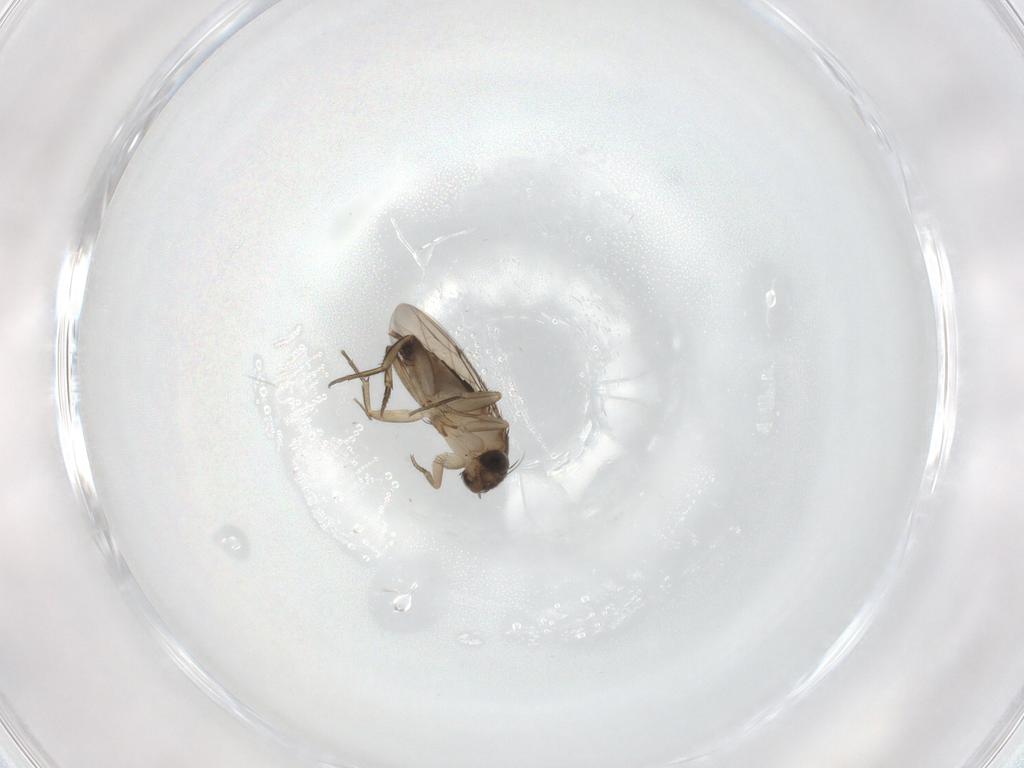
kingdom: Animalia
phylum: Arthropoda
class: Insecta
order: Diptera
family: Phoridae
